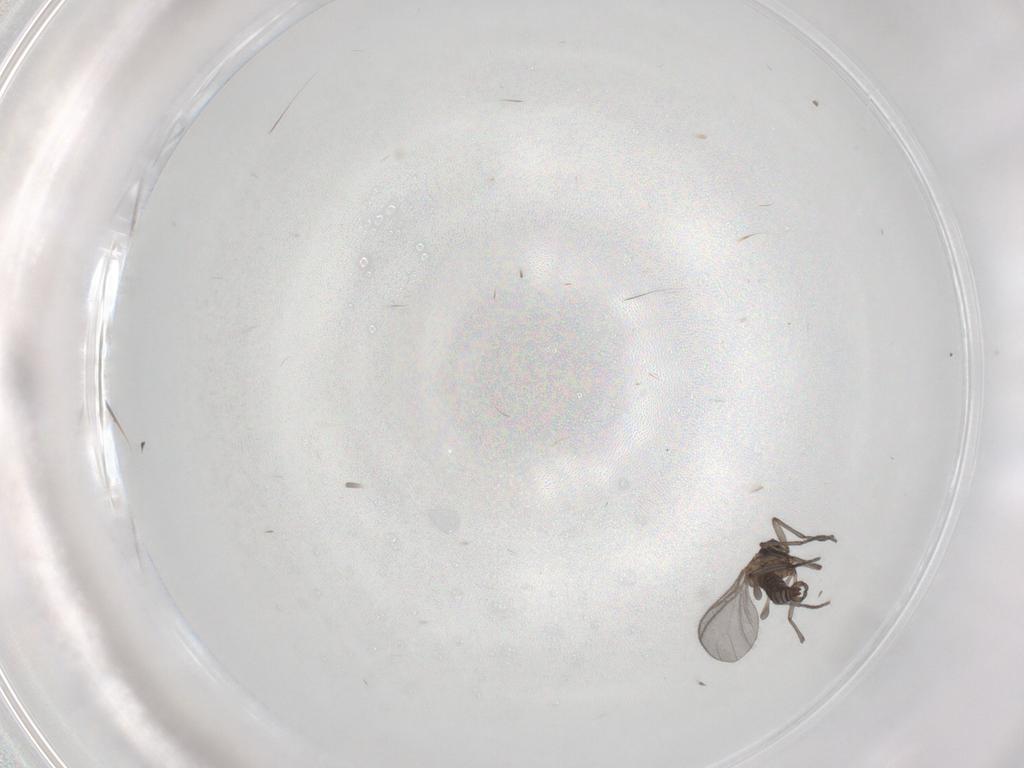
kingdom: Animalia
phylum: Arthropoda
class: Insecta
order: Diptera
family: Sciaridae
